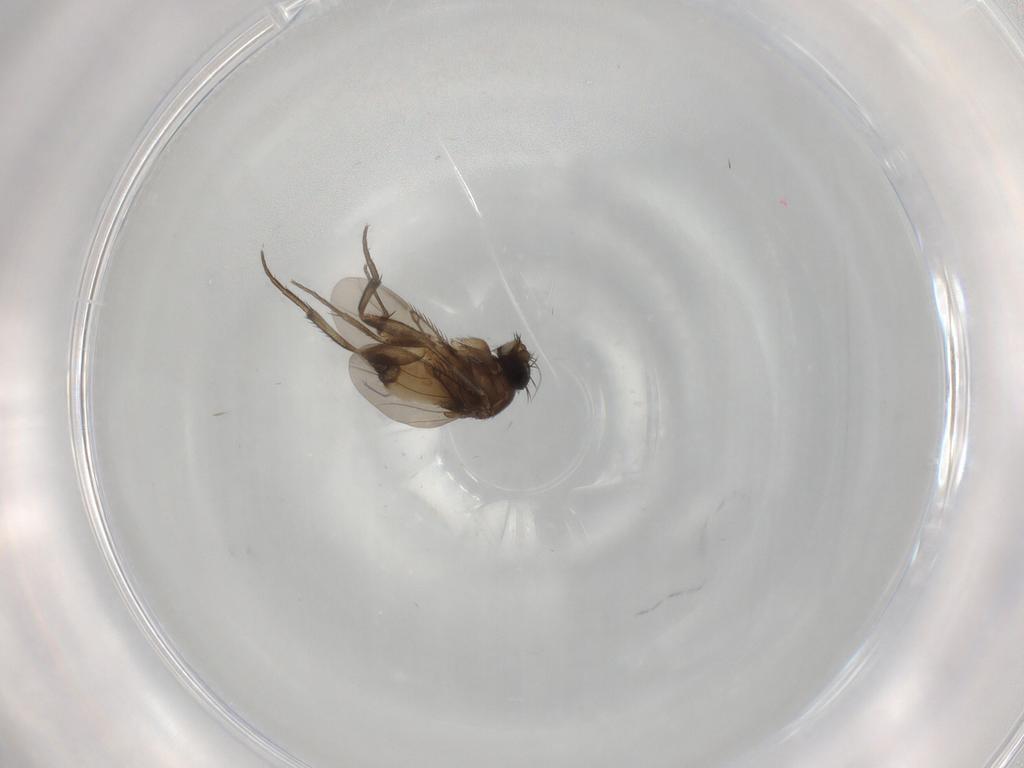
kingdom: Animalia
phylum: Arthropoda
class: Insecta
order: Diptera
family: Phoridae
